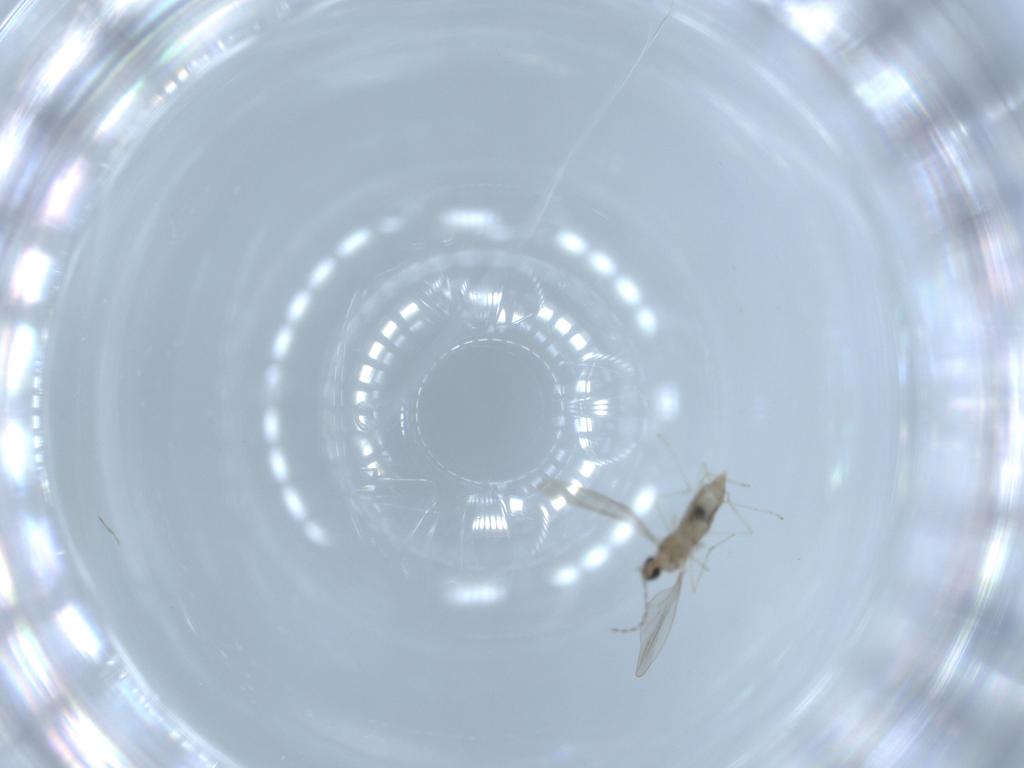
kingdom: Animalia
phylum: Arthropoda
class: Insecta
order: Diptera
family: Cecidomyiidae
